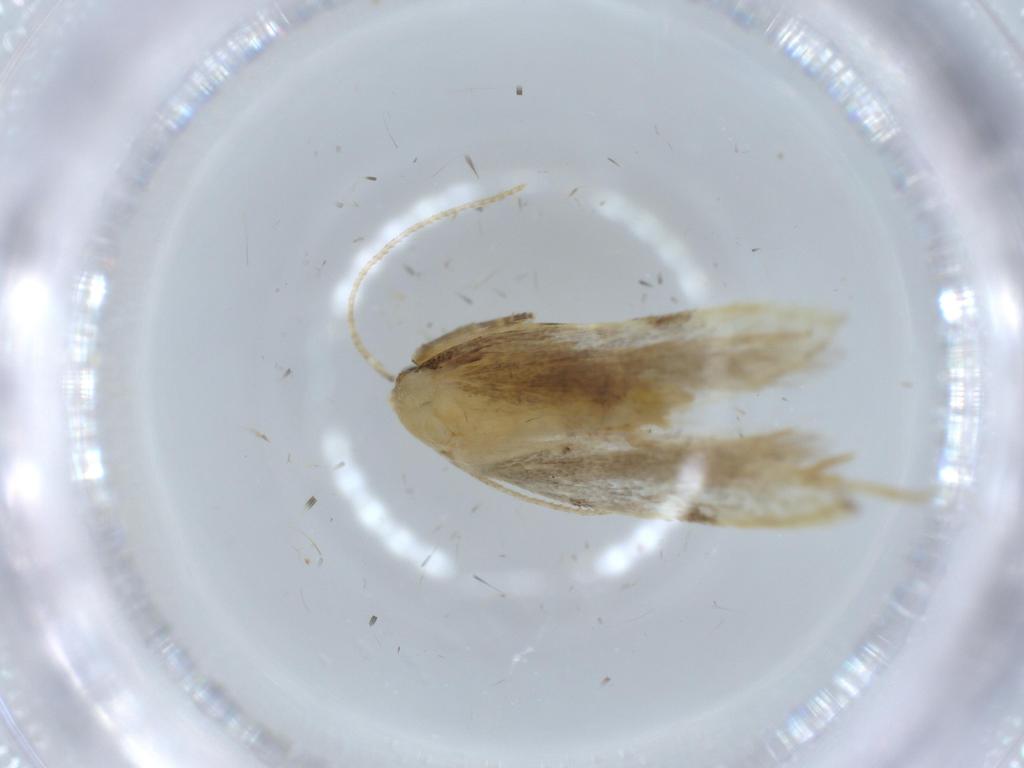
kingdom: Animalia
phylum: Arthropoda
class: Insecta
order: Lepidoptera
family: Autostichidae
